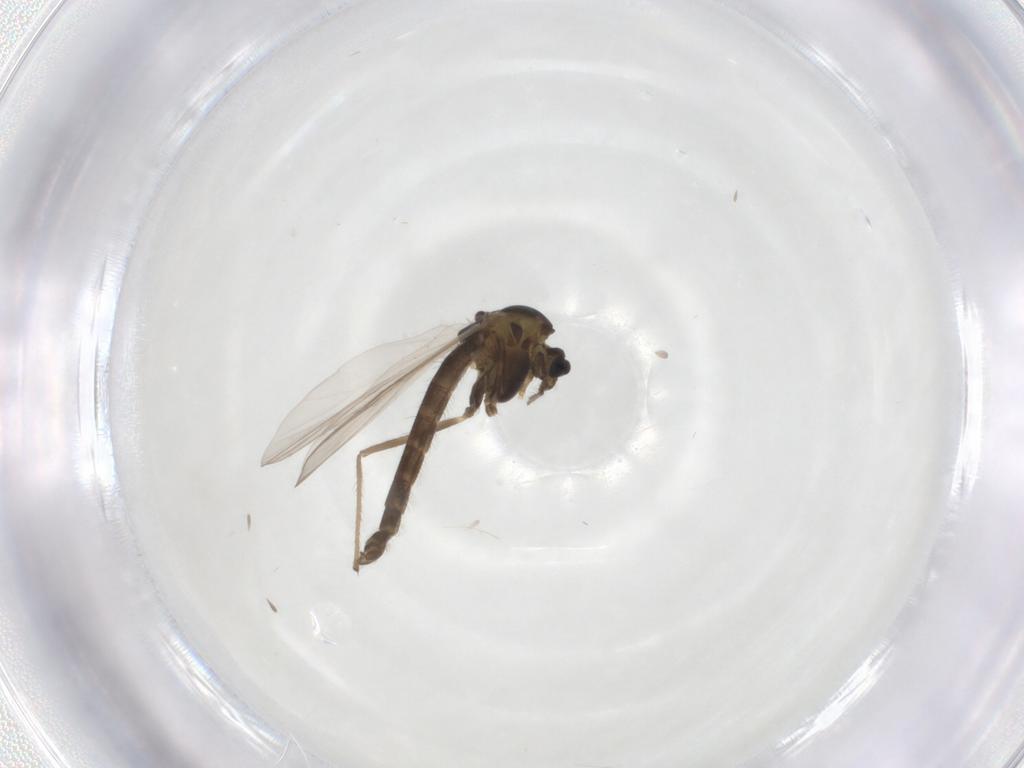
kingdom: Animalia
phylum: Arthropoda
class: Insecta
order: Diptera
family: Chironomidae
